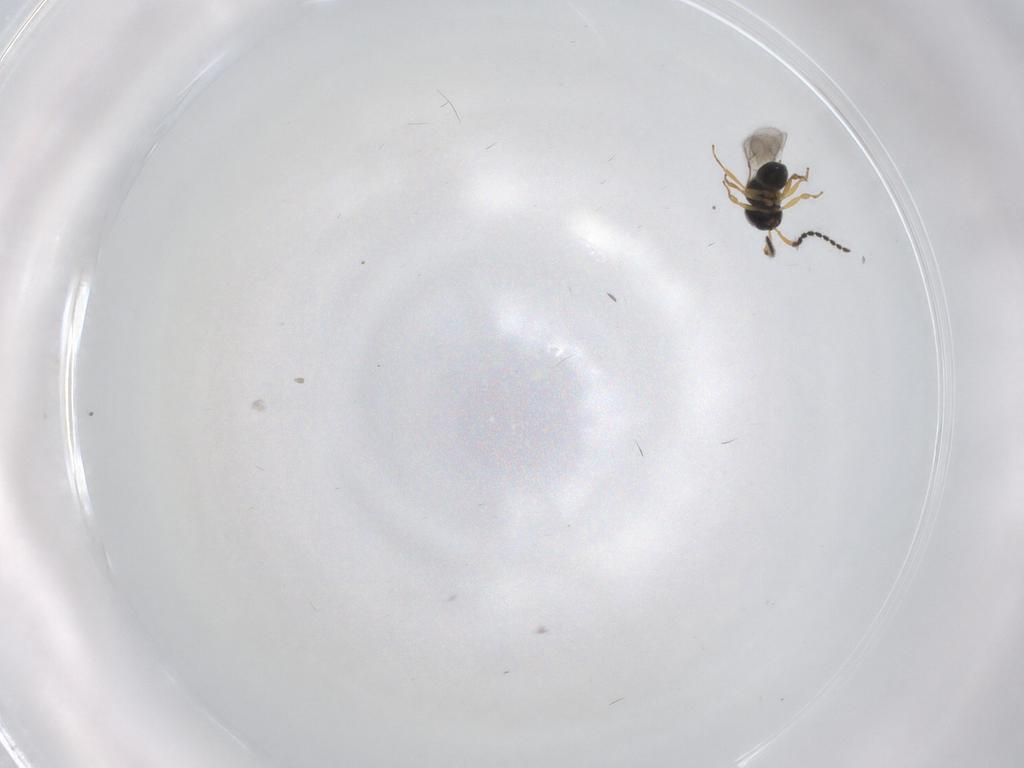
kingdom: Animalia
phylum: Arthropoda
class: Insecta
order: Hymenoptera
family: Scelionidae
